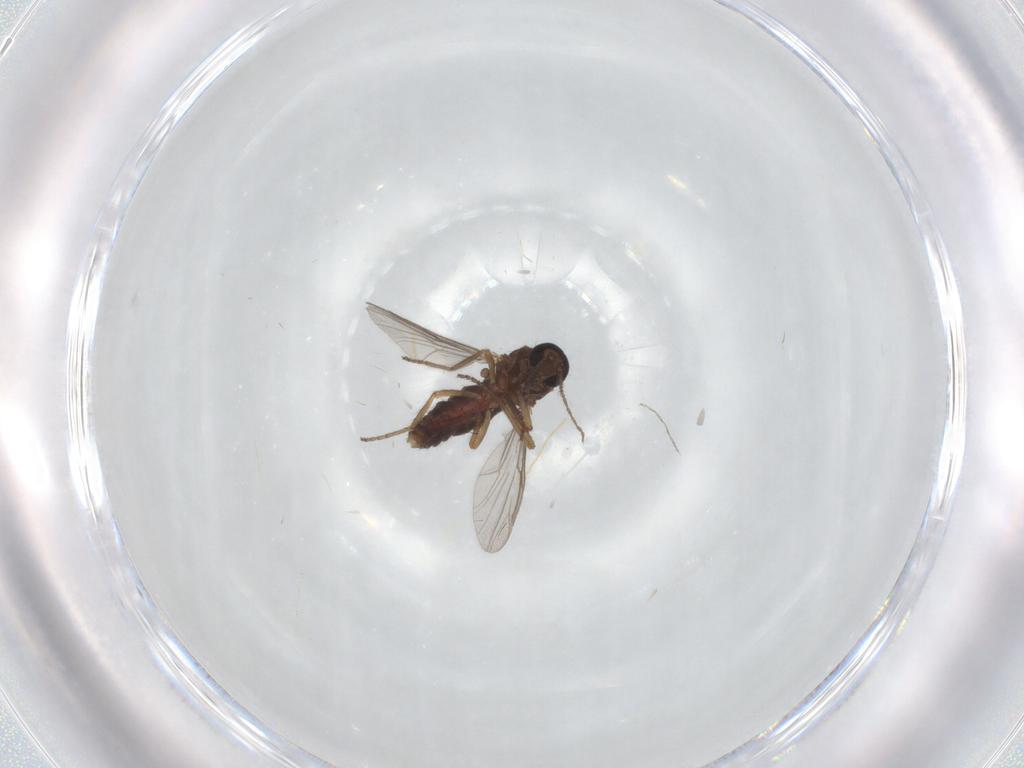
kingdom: Animalia
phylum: Arthropoda
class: Insecta
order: Diptera
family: Ceratopogonidae
